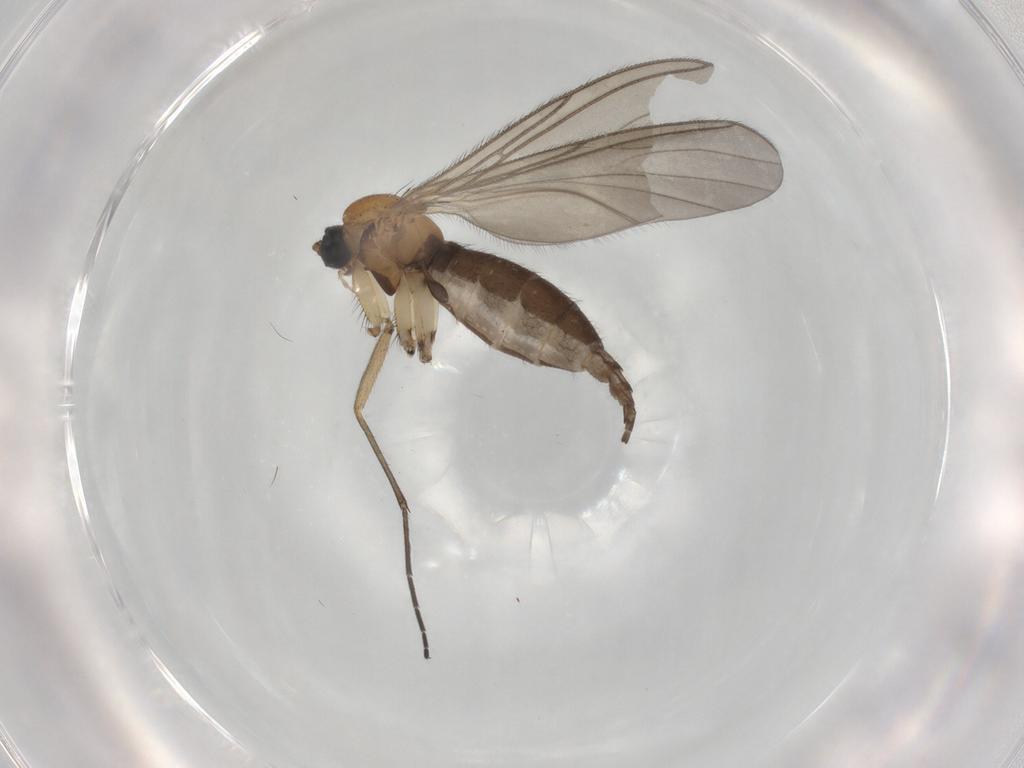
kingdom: Animalia
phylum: Arthropoda
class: Insecta
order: Diptera
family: Sciaridae
